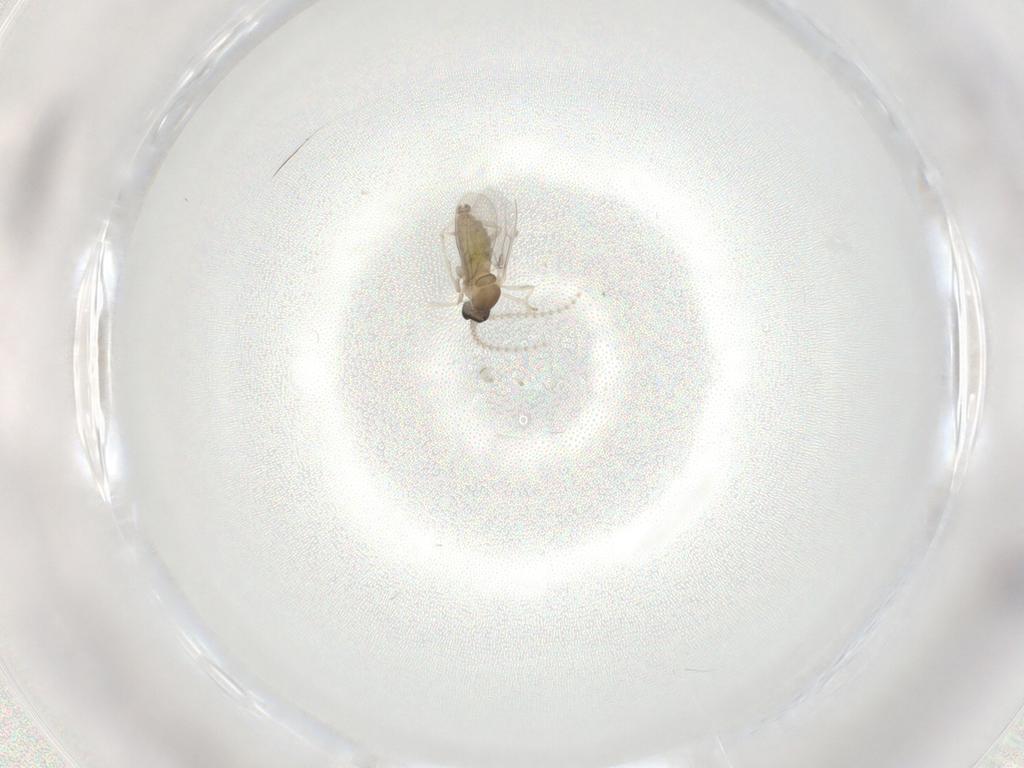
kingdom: Animalia
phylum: Arthropoda
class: Insecta
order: Diptera
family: Cecidomyiidae
